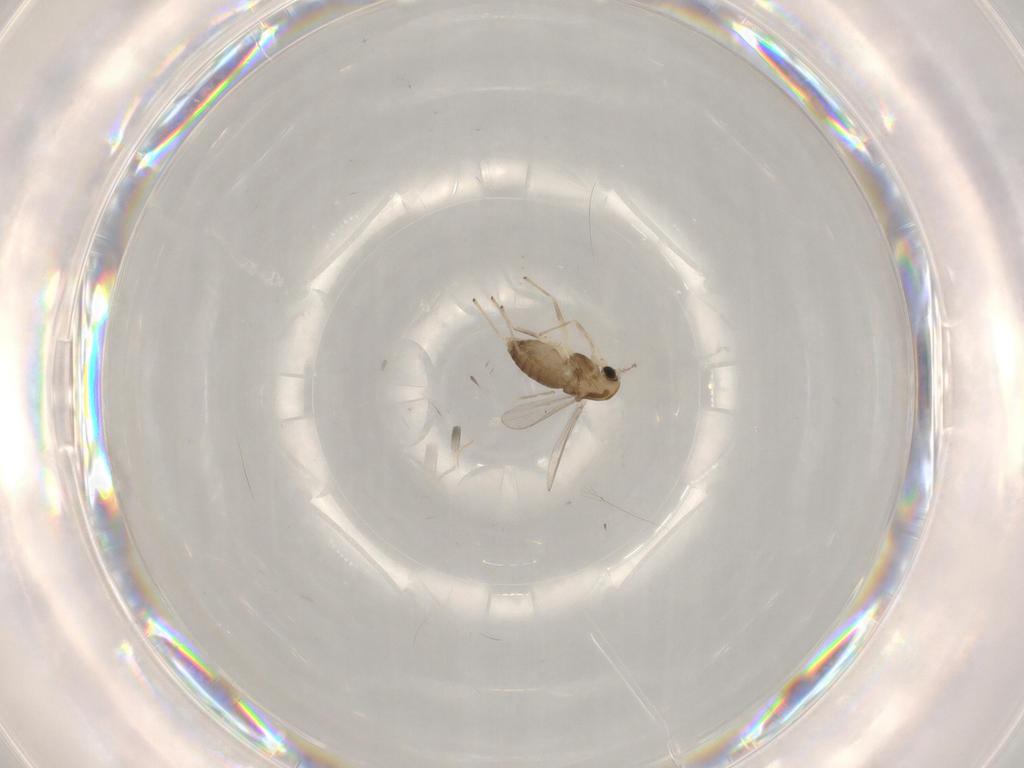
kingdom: Animalia
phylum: Arthropoda
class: Insecta
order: Diptera
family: Chironomidae
